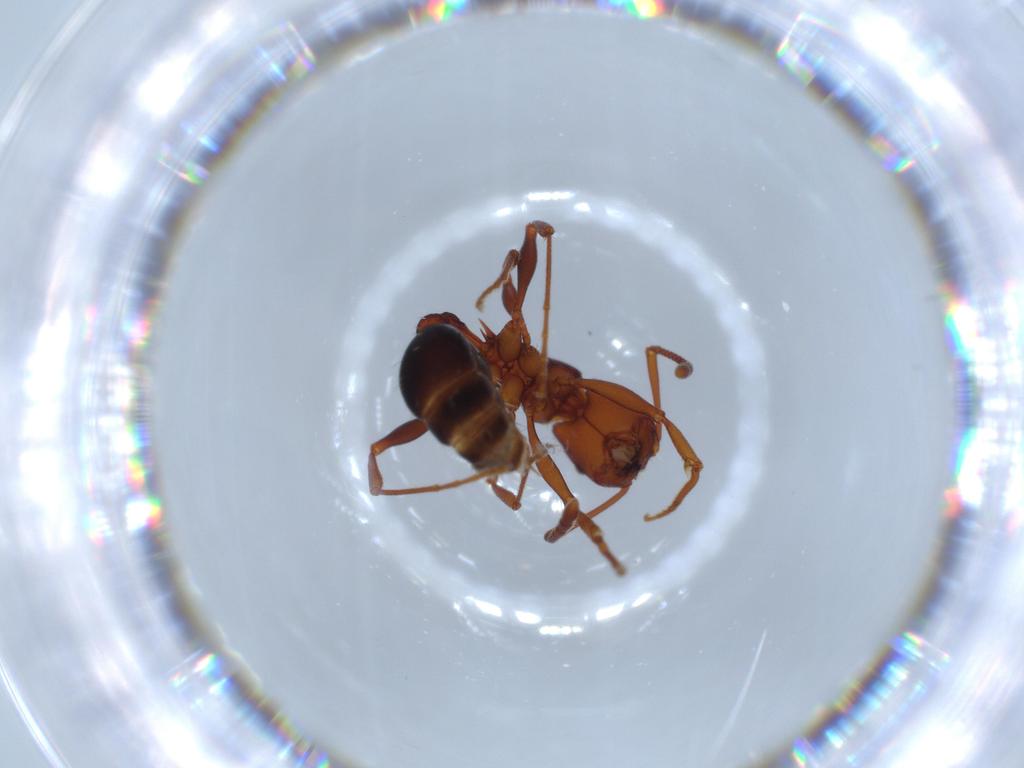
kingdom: Animalia
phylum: Arthropoda
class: Insecta
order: Hymenoptera
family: Formicidae
